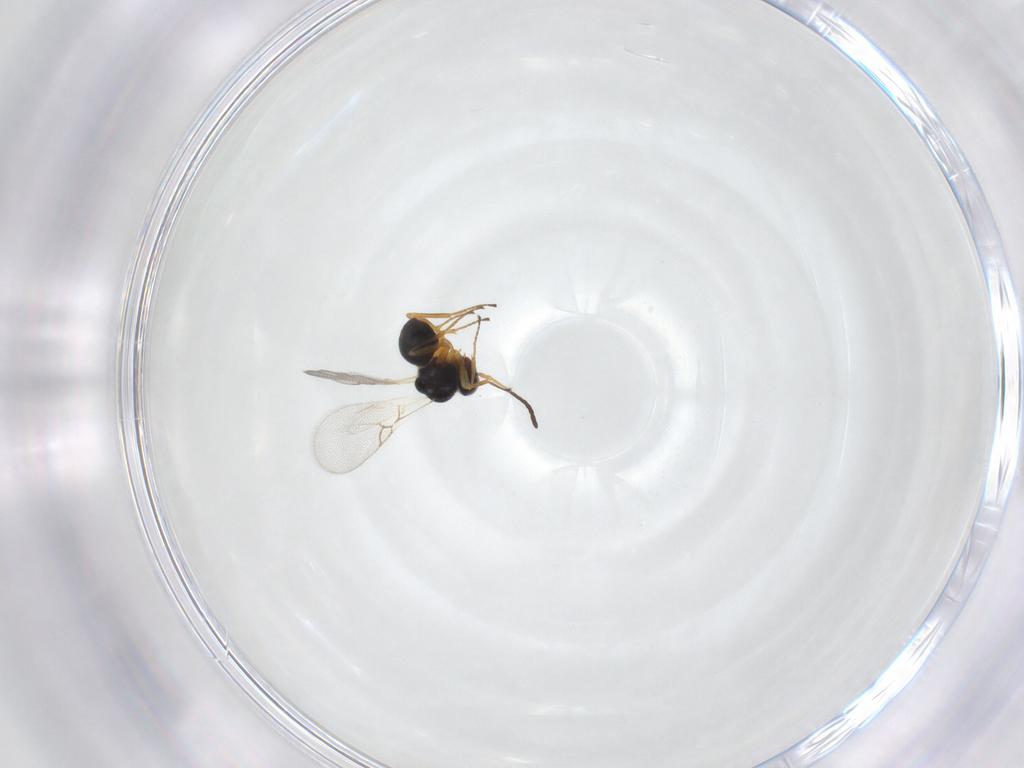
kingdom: Animalia
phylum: Arthropoda
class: Insecta
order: Hymenoptera
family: Figitidae
